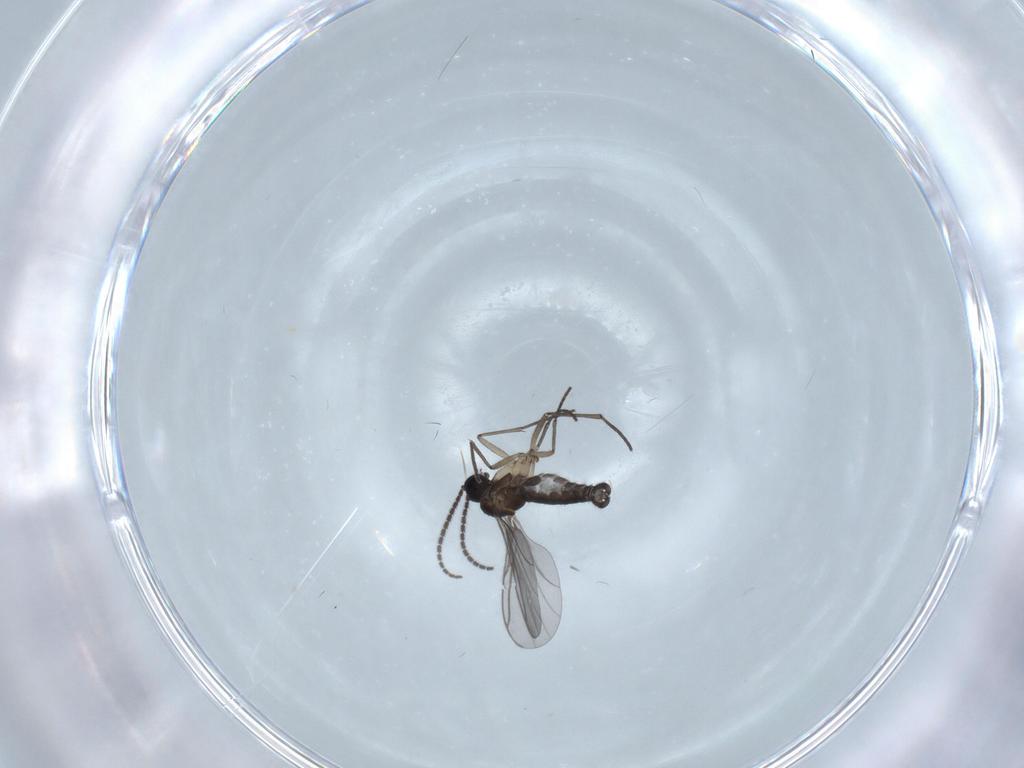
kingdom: Animalia
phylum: Arthropoda
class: Insecta
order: Diptera
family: Sciaridae
